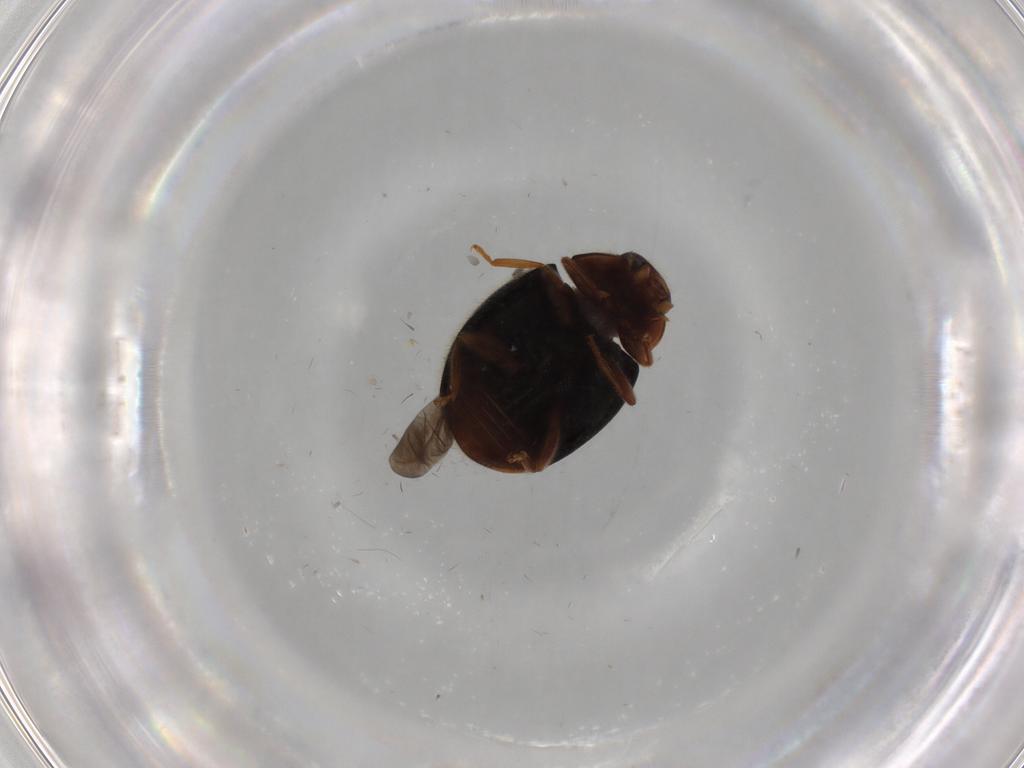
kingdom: Animalia
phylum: Arthropoda
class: Insecta
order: Coleoptera
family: Coccinellidae
